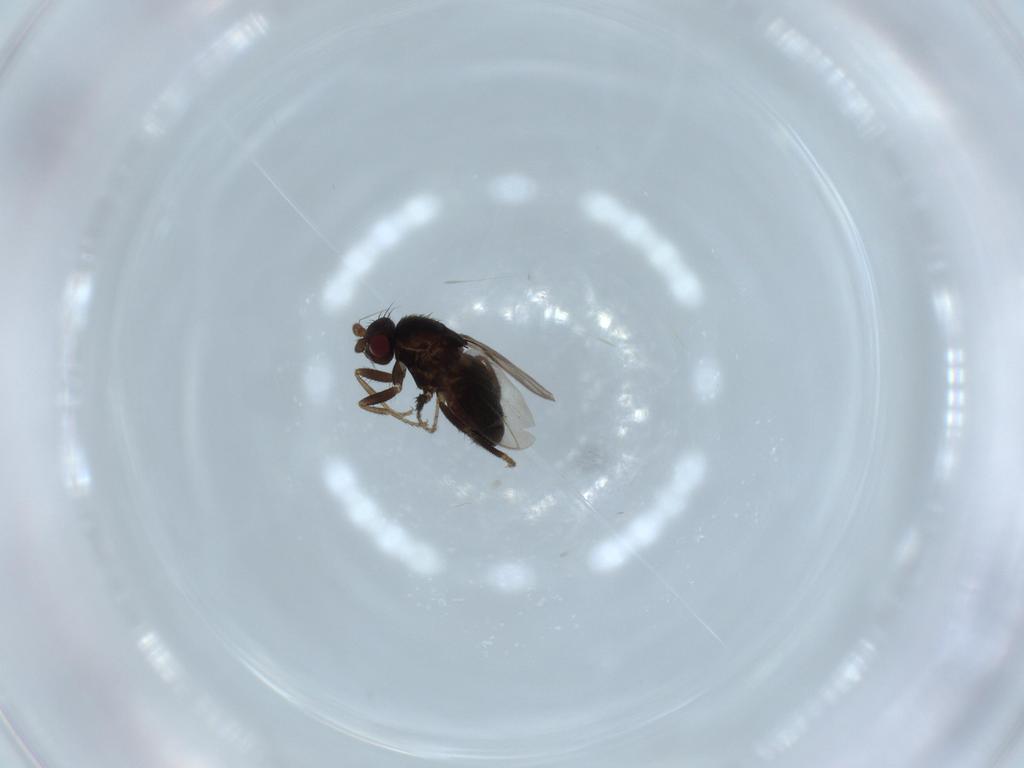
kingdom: Animalia
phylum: Arthropoda
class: Insecta
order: Diptera
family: Sphaeroceridae
